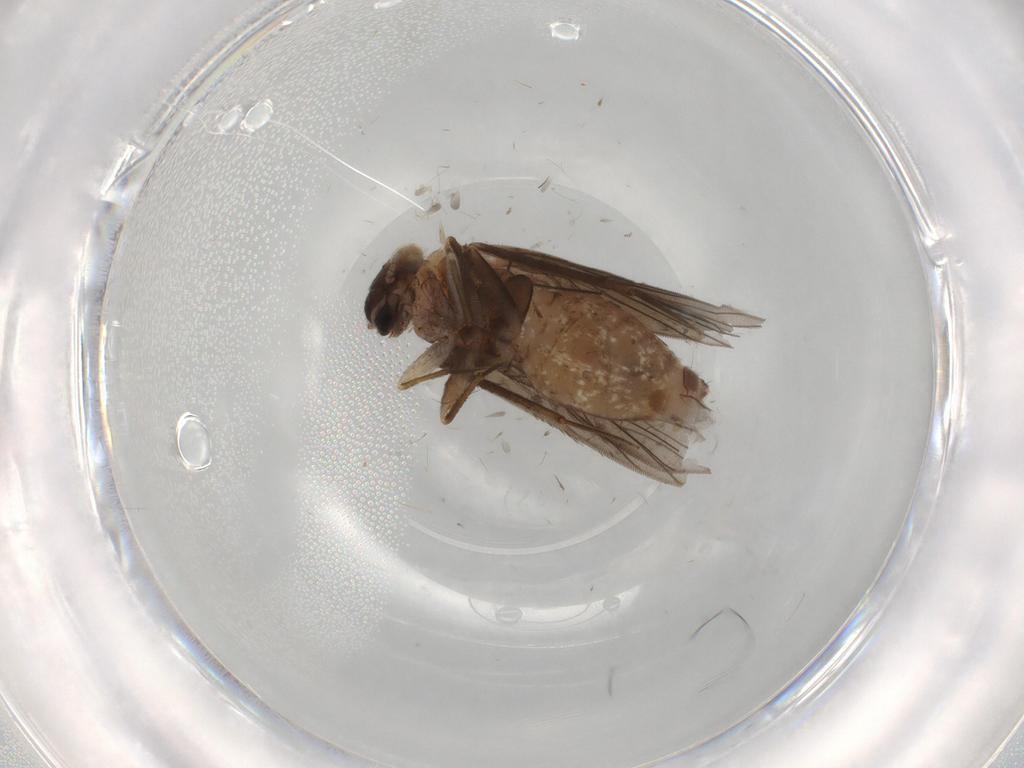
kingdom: Animalia
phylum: Arthropoda
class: Insecta
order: Psocodea
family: Lepidopsocidae
